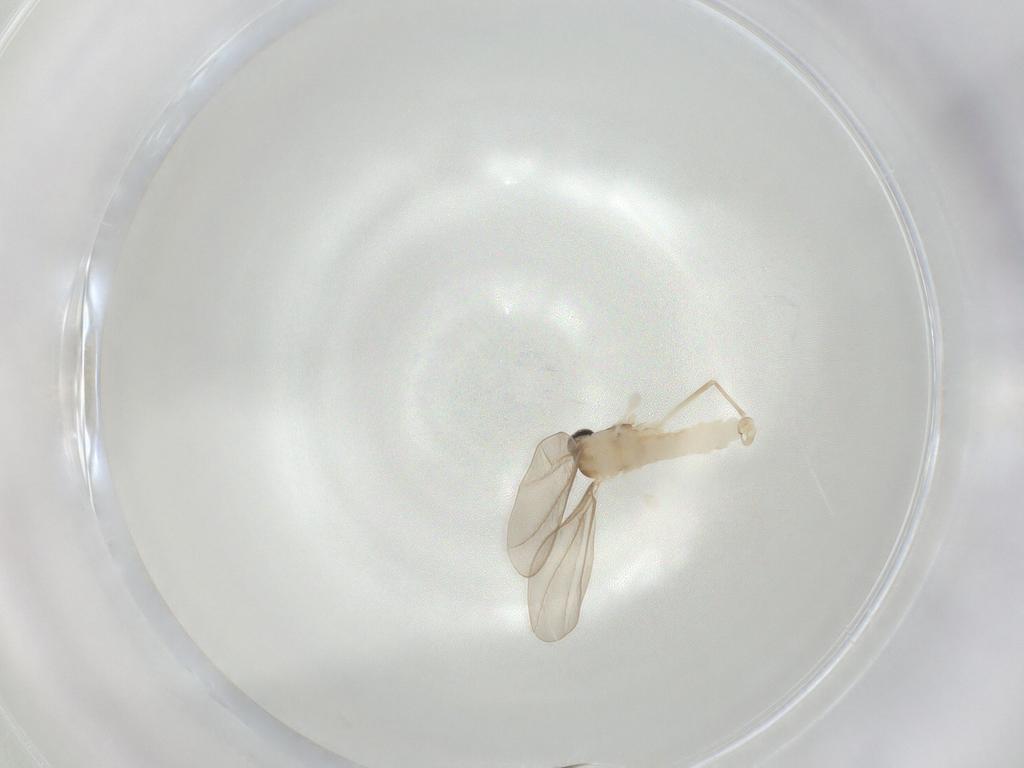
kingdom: Animalia
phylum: Arthropoda
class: Insecta
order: Diptera
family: Cecidomyiidae
